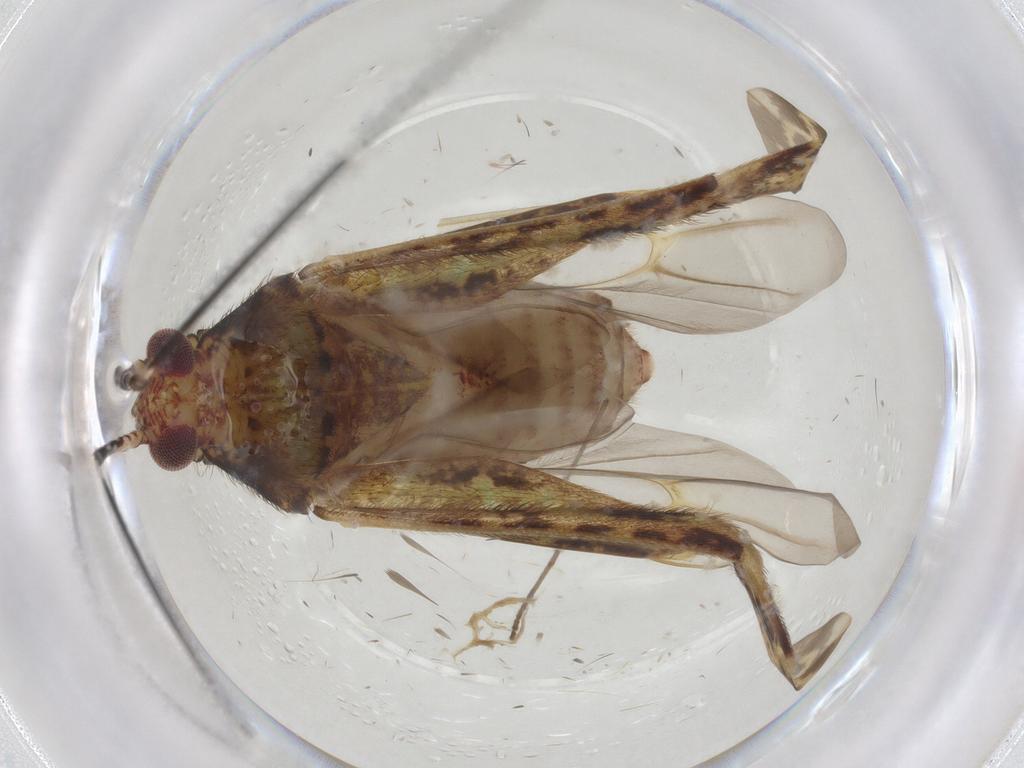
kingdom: Animalia
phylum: Arthropoda
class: Insecta
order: Hemiptera
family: Miridae
